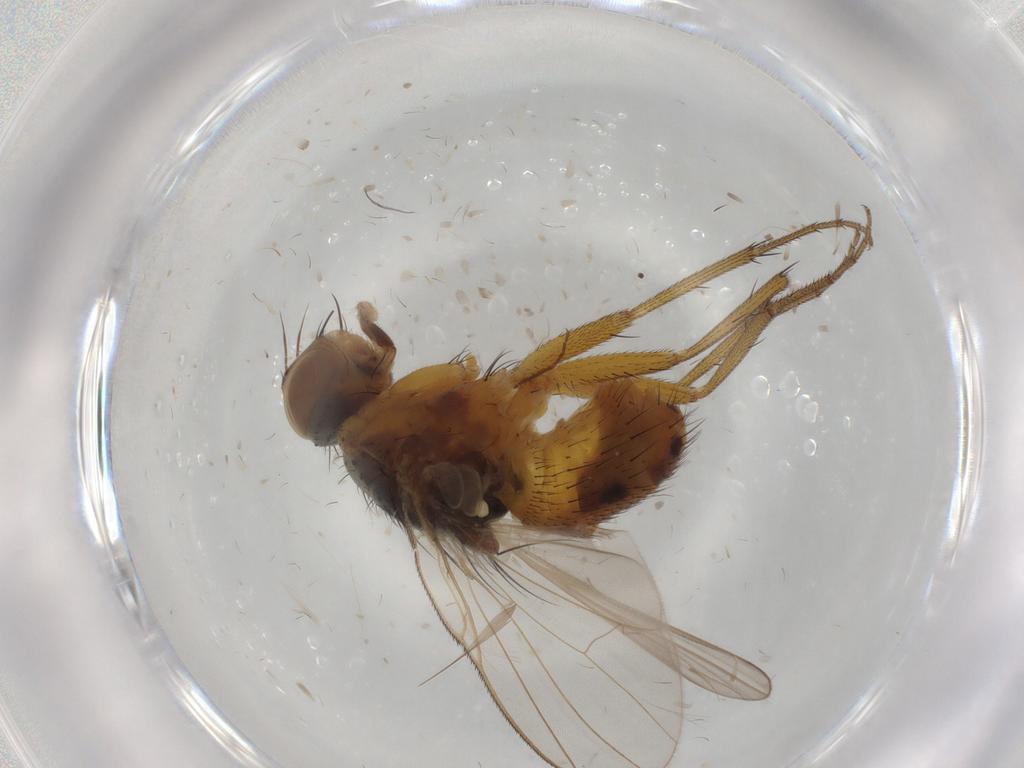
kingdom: Animalia
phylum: Arthropoda
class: Insecta
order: Diptera
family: Muscidae
